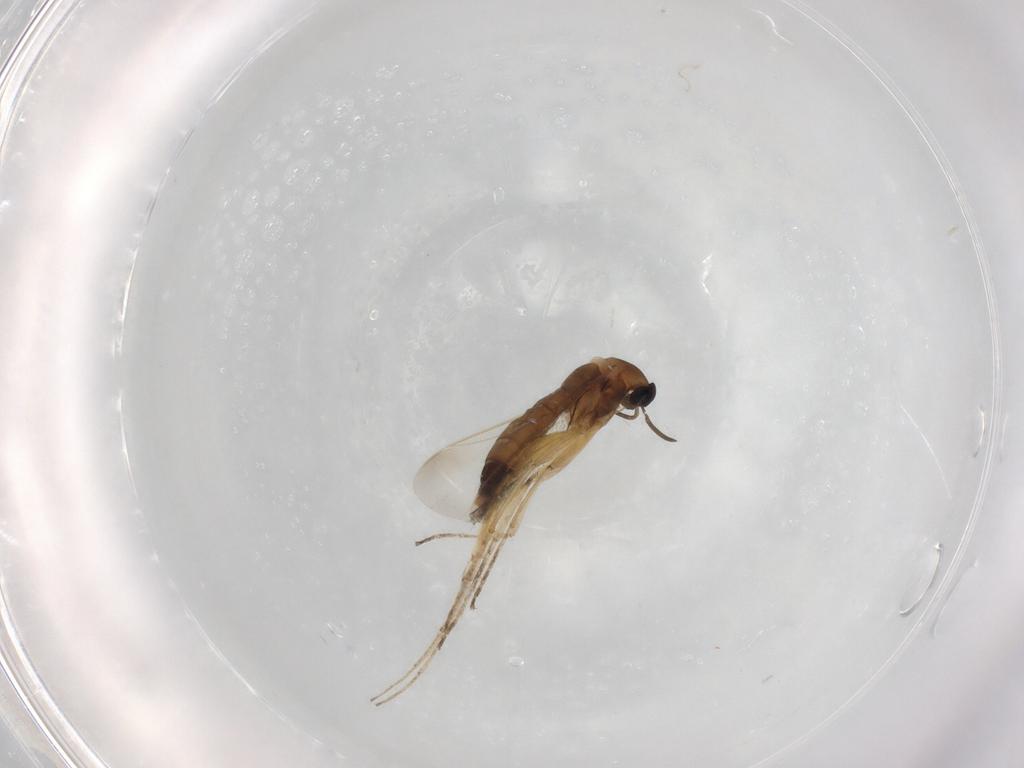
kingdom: Animalia
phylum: Arthropoda
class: Insecta
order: Diptera
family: Cecidomyiidae
